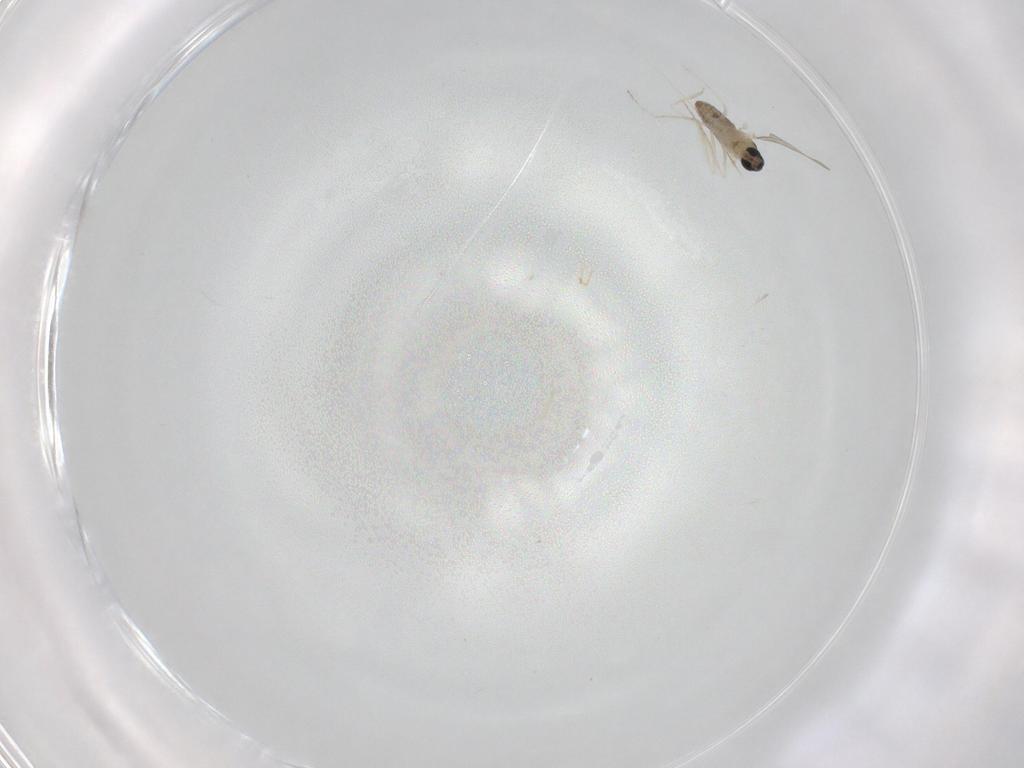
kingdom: Animalia
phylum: Arthropoda
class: Insecta
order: Diptera
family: Cecidomyiidae
